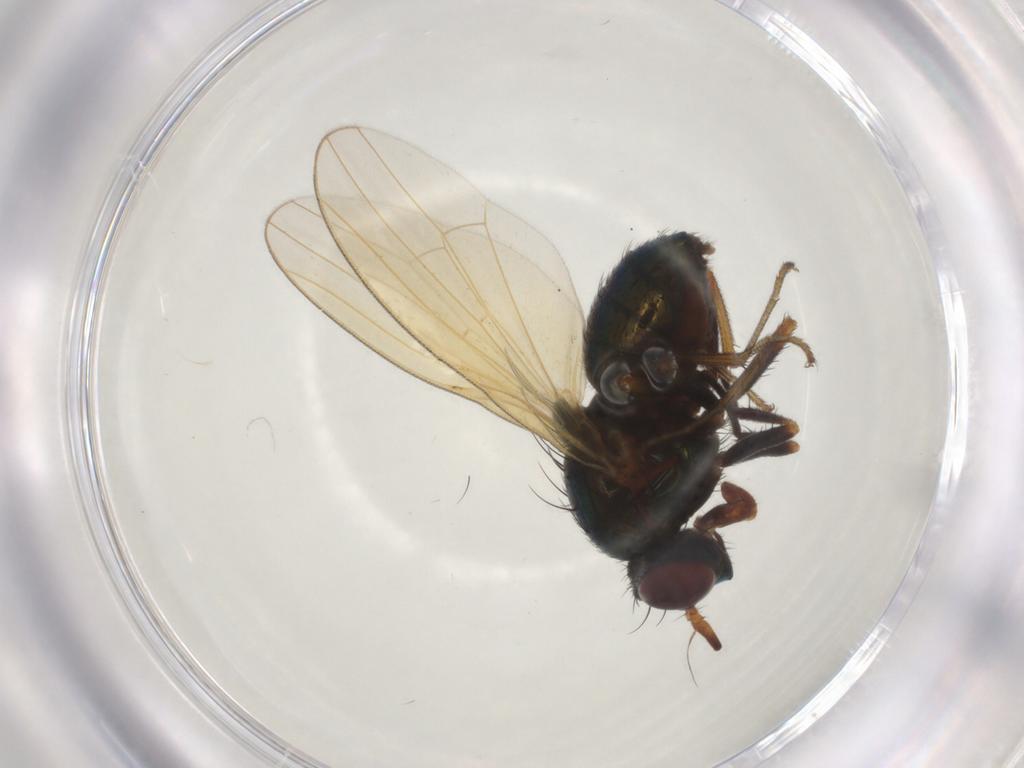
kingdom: Animalia
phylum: Arthropoda
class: Insecta
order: Diptera
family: Lauxaniidae
